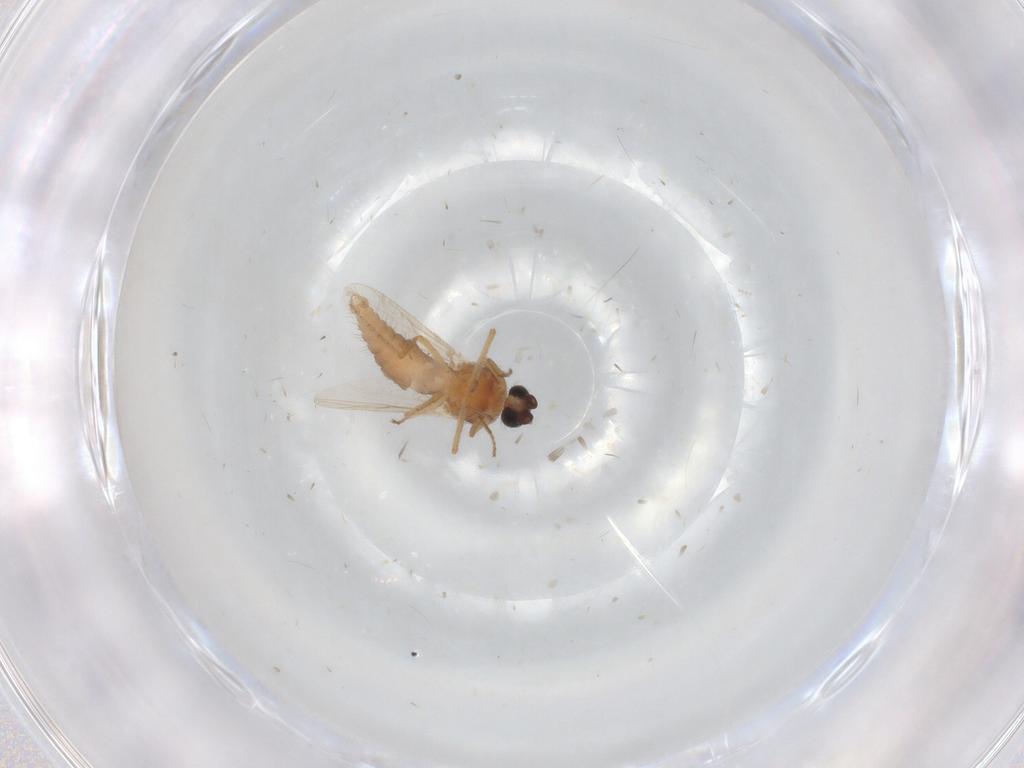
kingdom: Animalia
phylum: Arthropoda
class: Insecta
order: Diptera
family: Ceratopogonidae
